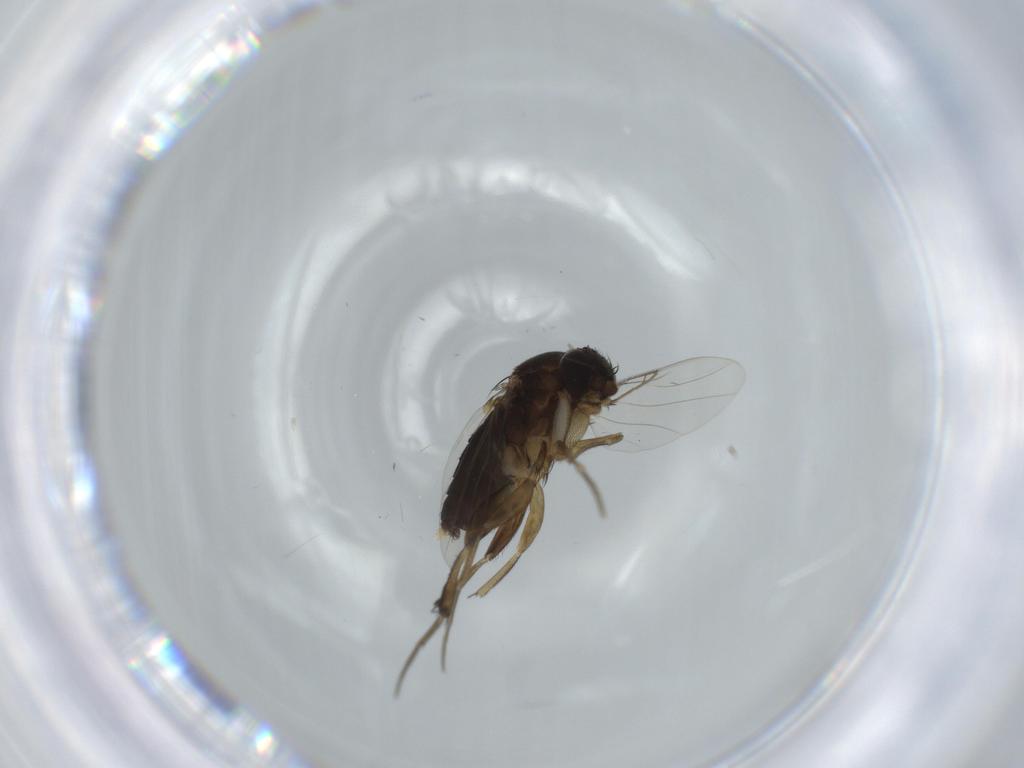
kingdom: Animalia
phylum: Arthropoda
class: Insecta
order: Diptera
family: Phoridae
